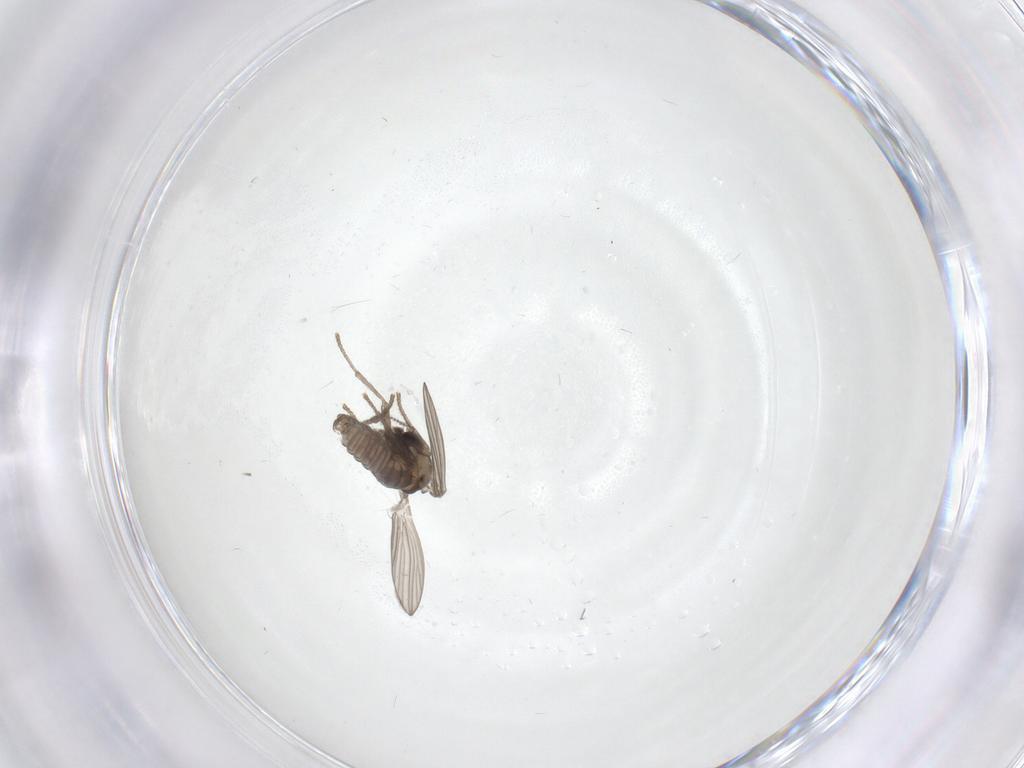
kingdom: Animalia
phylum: Arthropoda
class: Insecta
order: Diptera
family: Psychodidae
